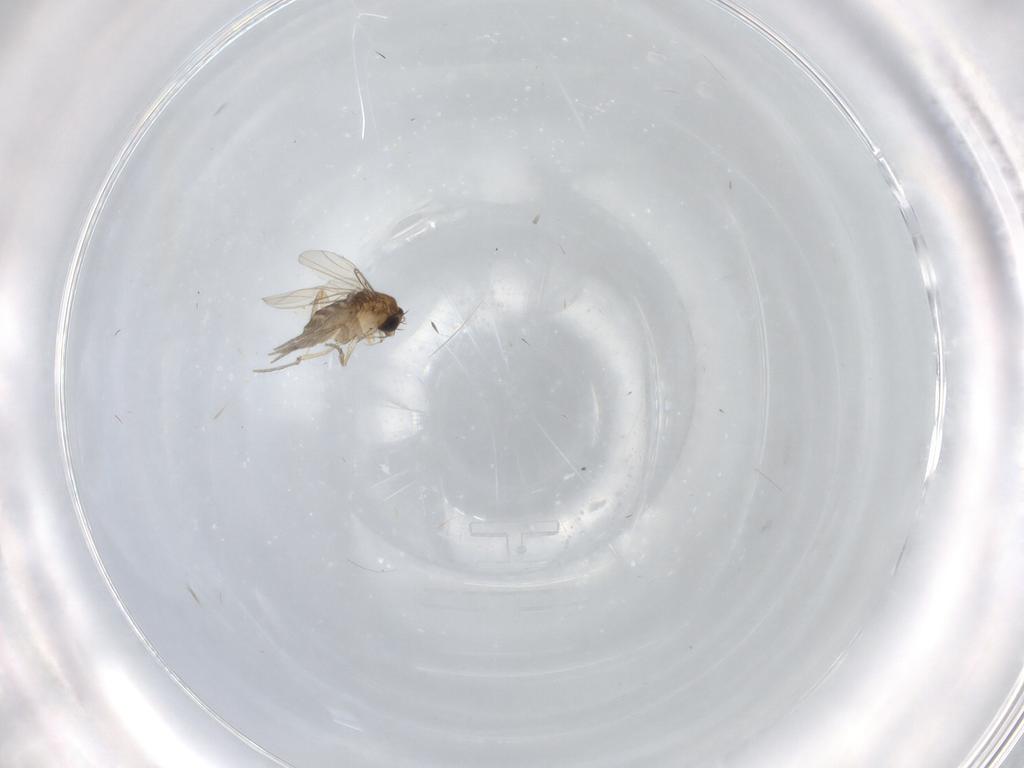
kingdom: Animalia
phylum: Arthropoda
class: Insecta
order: Diptera
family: Phoridae
